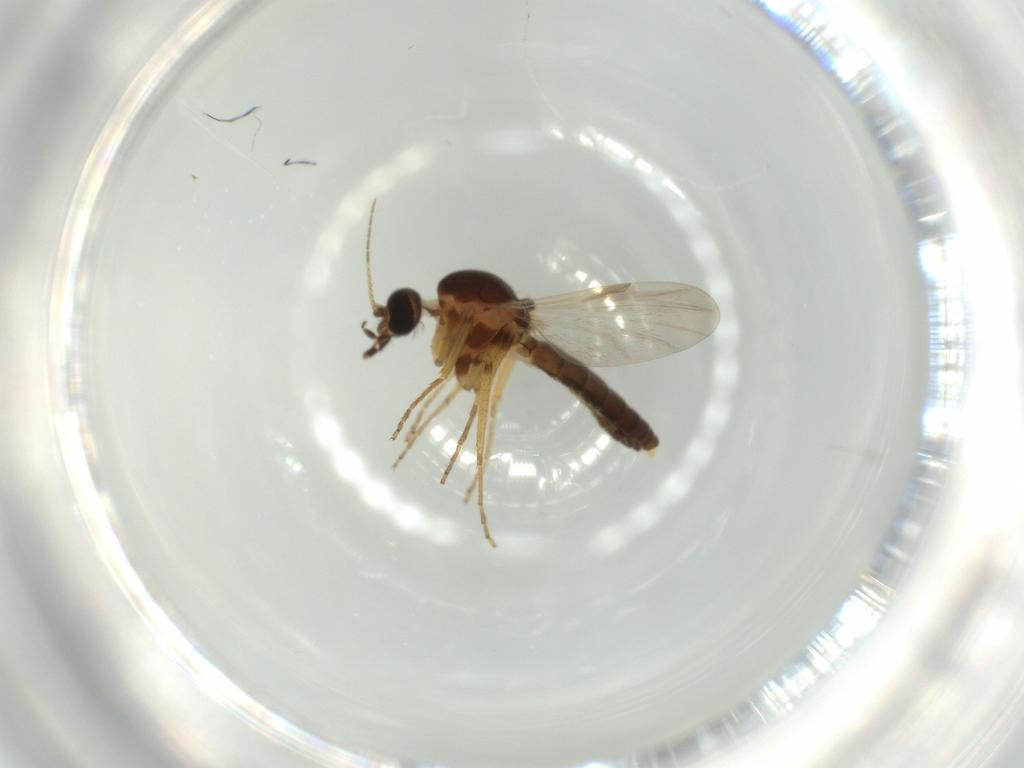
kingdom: Animalia
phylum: Arthropoda
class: Insecta
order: Diptera
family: Ceratopogonidae
